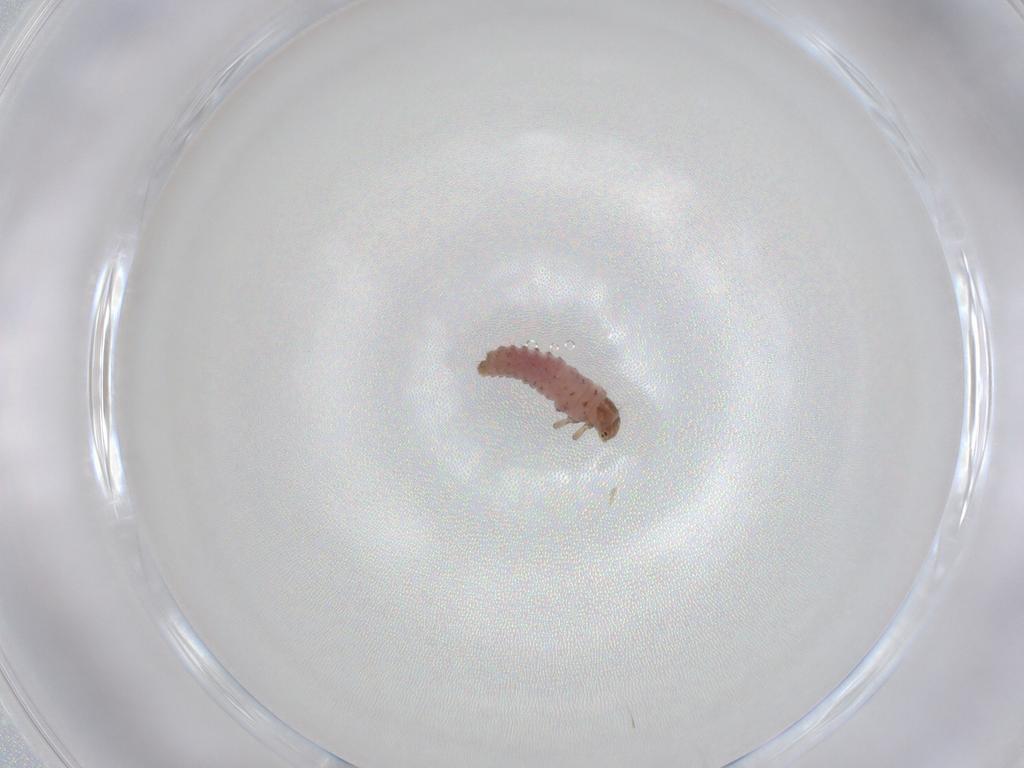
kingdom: Animalia
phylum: Arthropoda
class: Insecta
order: Coleoptera
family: Coccinellidae
